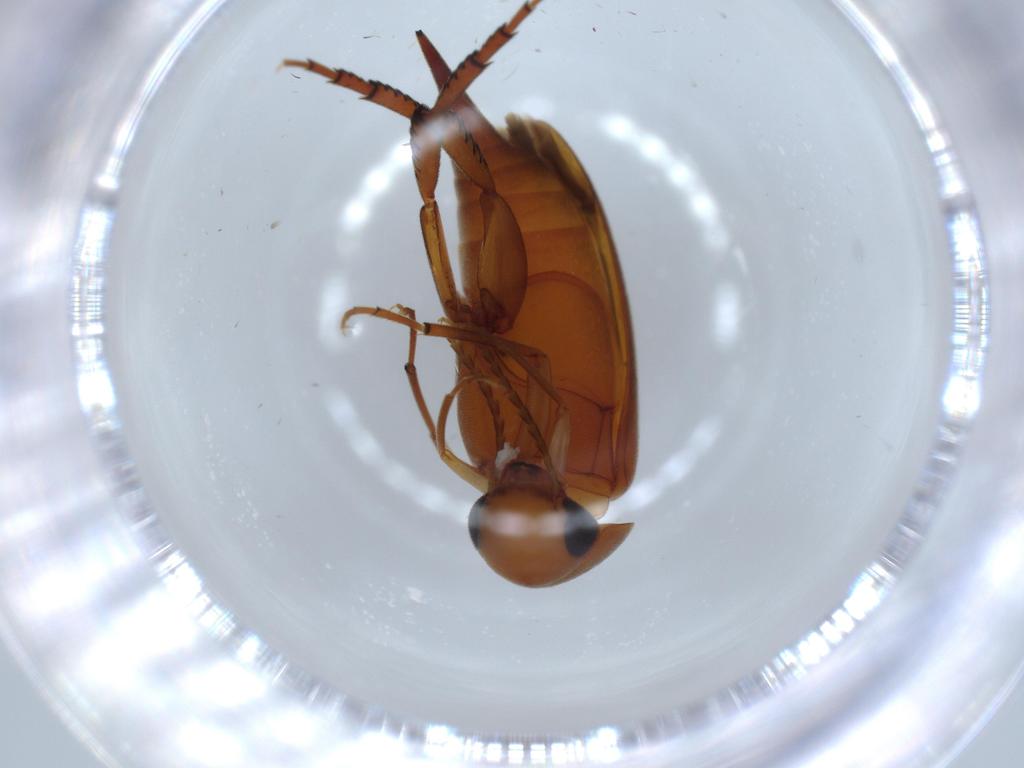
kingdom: Animalia
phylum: Arthropoda
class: Insecta
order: Coleoptera
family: Mordellidae
